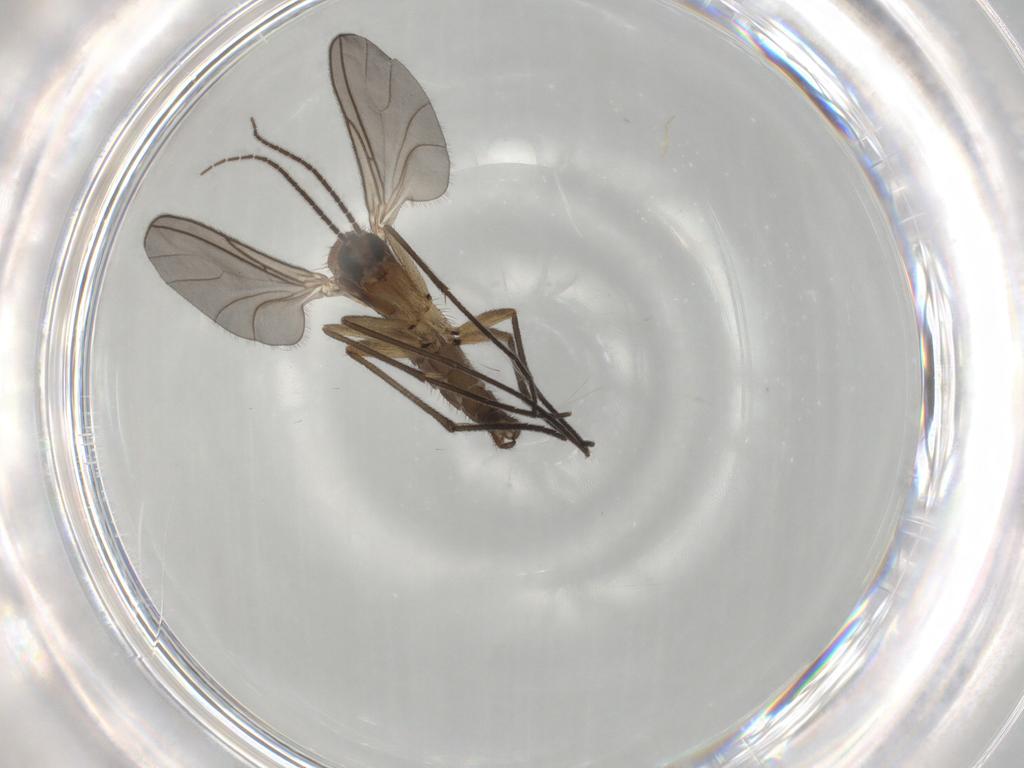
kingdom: Animalia
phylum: Arthropoda
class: Insecta
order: Diptera
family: Sciaridae
